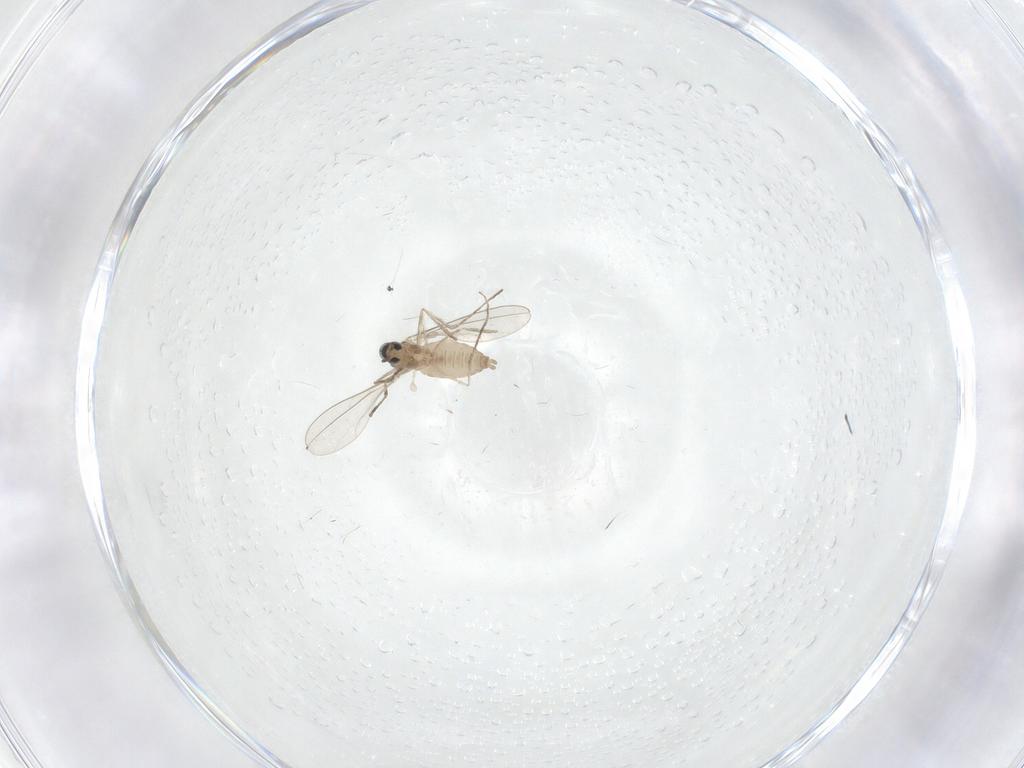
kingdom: Animalia
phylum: Arthropoda
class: Insecta
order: Diptera
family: Cecidomyiidae
